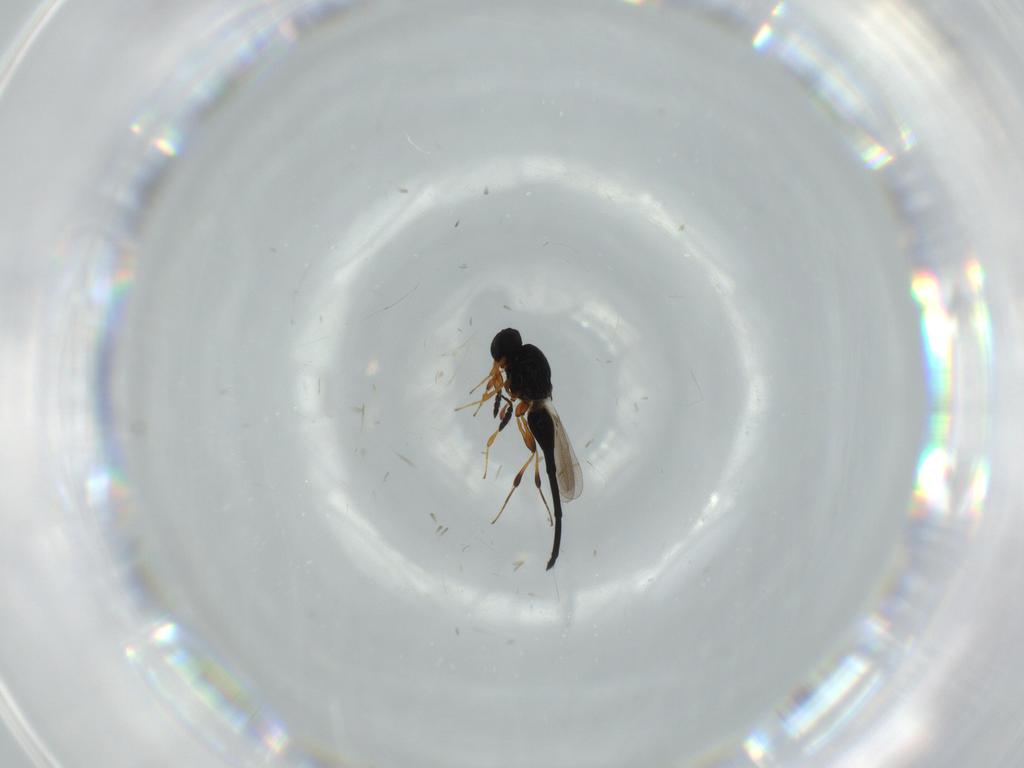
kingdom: Animalia
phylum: Arthropoda
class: Insecta
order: Hymenoptera
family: Platygastridae
